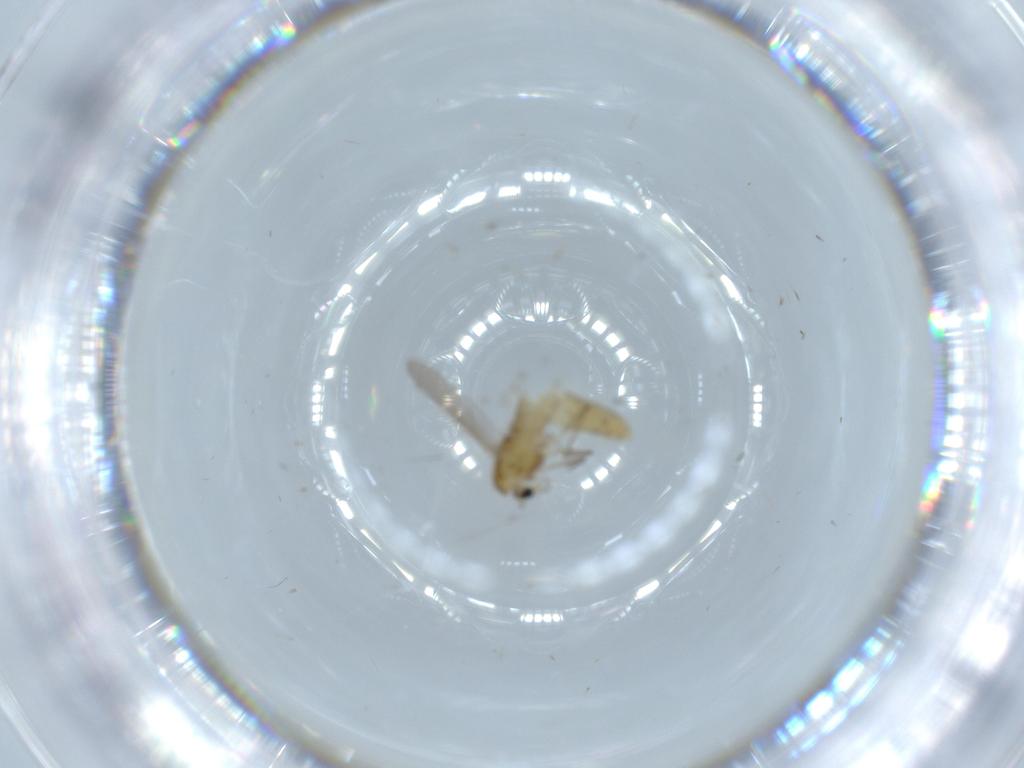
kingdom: Animalia
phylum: Arthropoda
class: Insecta
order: Diptera
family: Chironomidae
